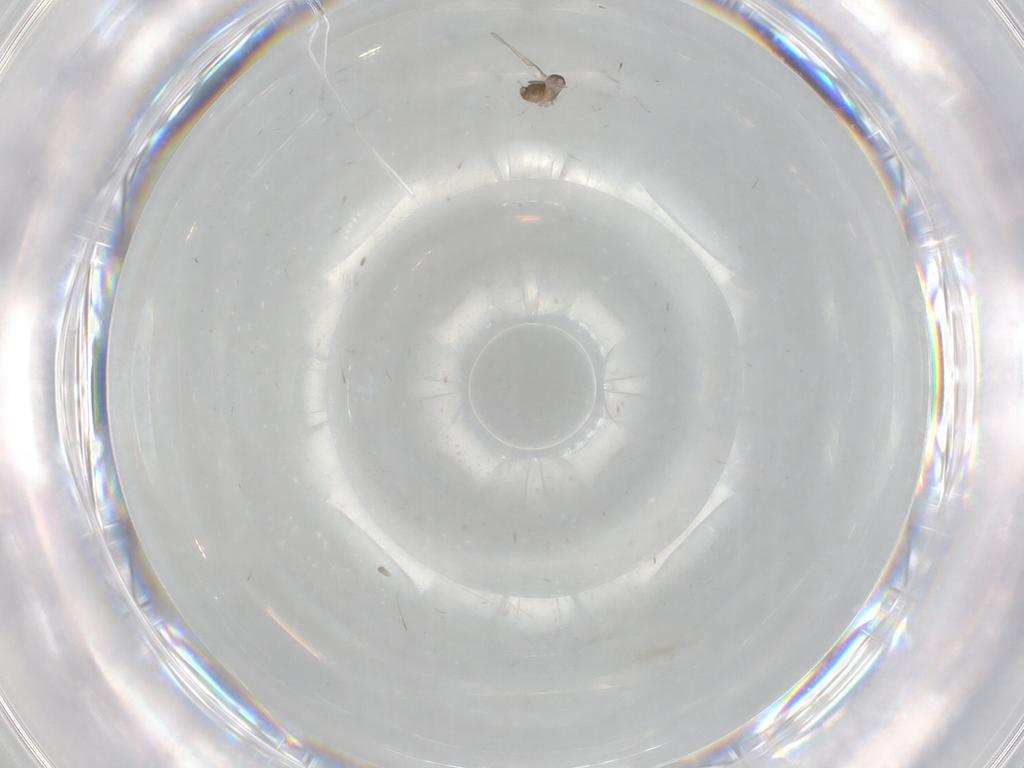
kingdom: Animalia
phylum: Arthropoda
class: Insecta
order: Diptera
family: Cecidomyiidae
